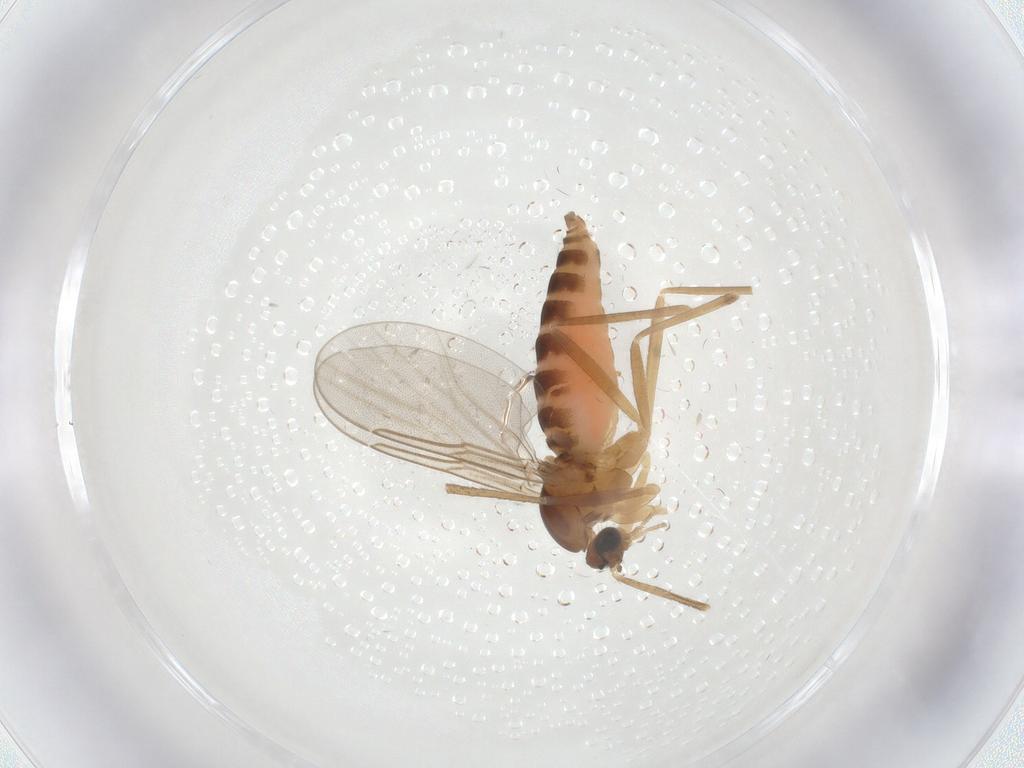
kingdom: Animalia
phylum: Arthropoda
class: Insecta
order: Diptera
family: Cecidomyiidae
